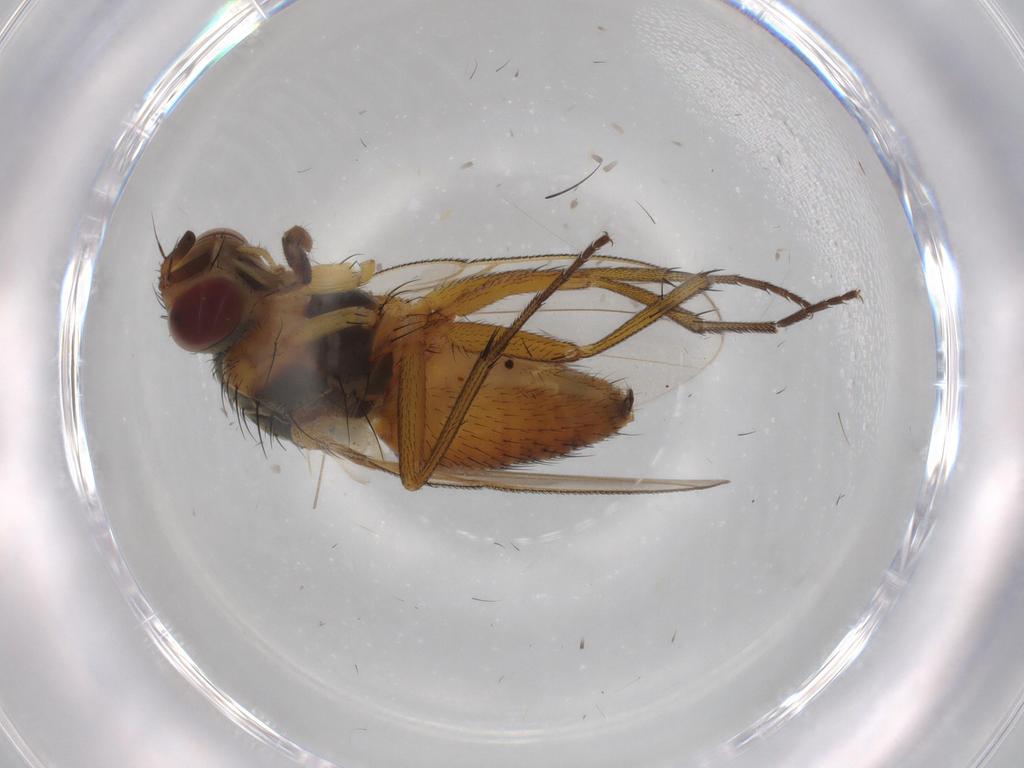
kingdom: Animalia
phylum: Arthropoda
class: Insecta
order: Diptera
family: Muscidae
